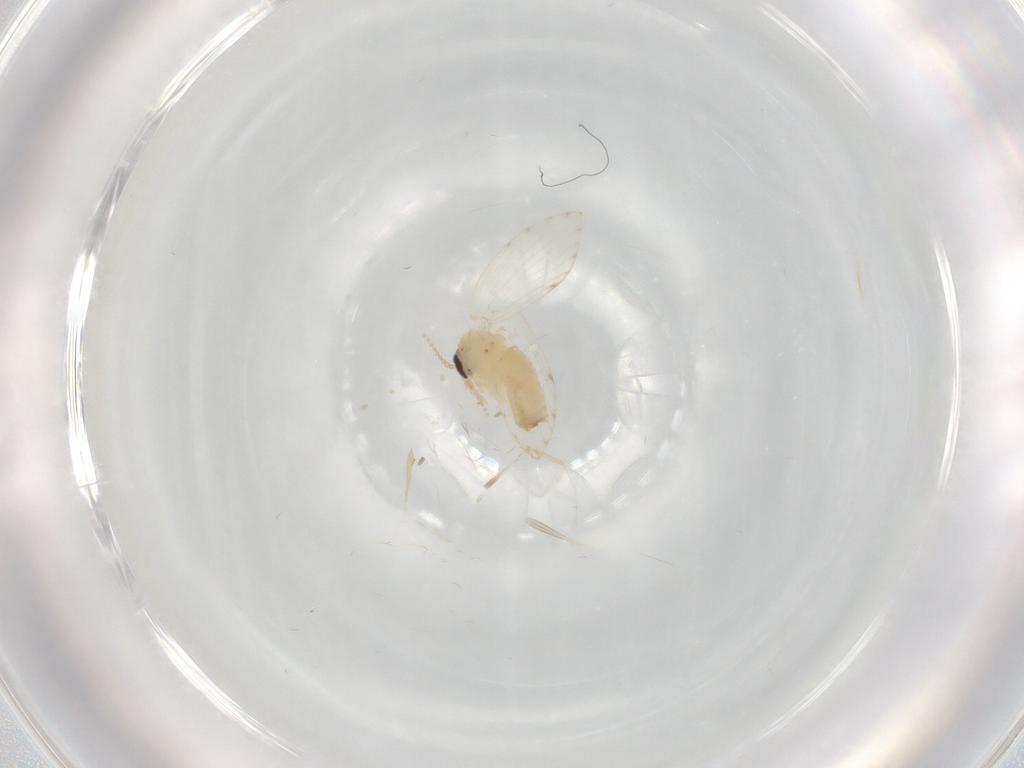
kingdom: Animalia
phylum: Arthropoda
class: Insecta
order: Diptera
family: Psychodidae
